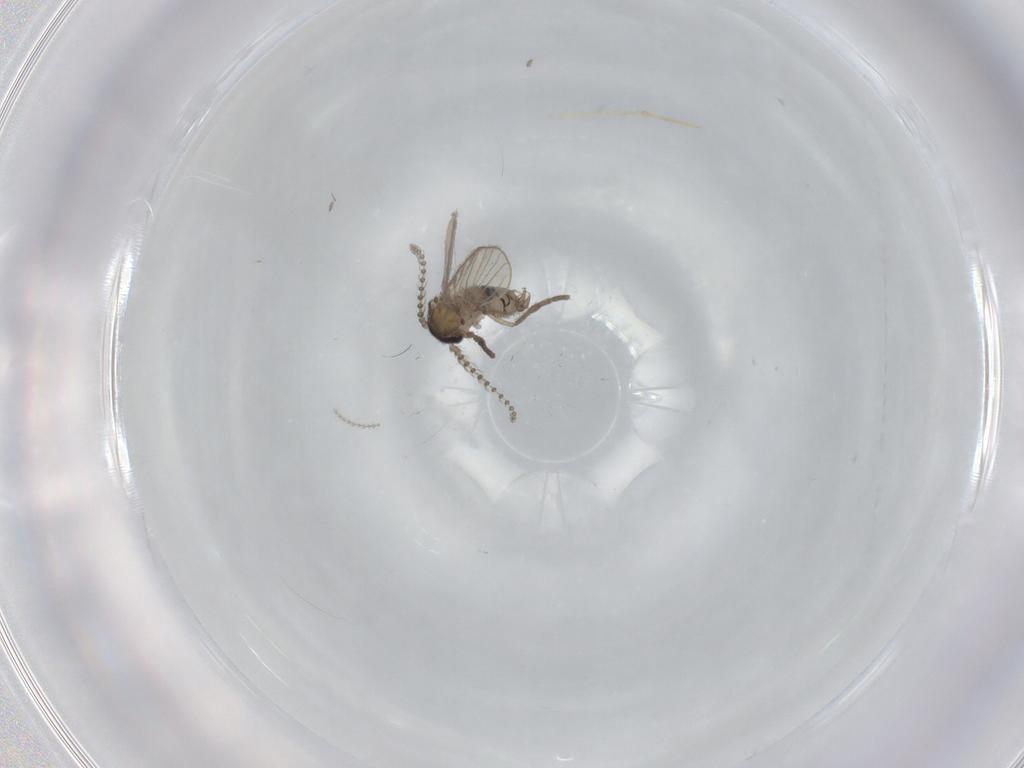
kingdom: Animalia
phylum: Arthropoda
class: Insecta
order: Diptera
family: Psychodidae
